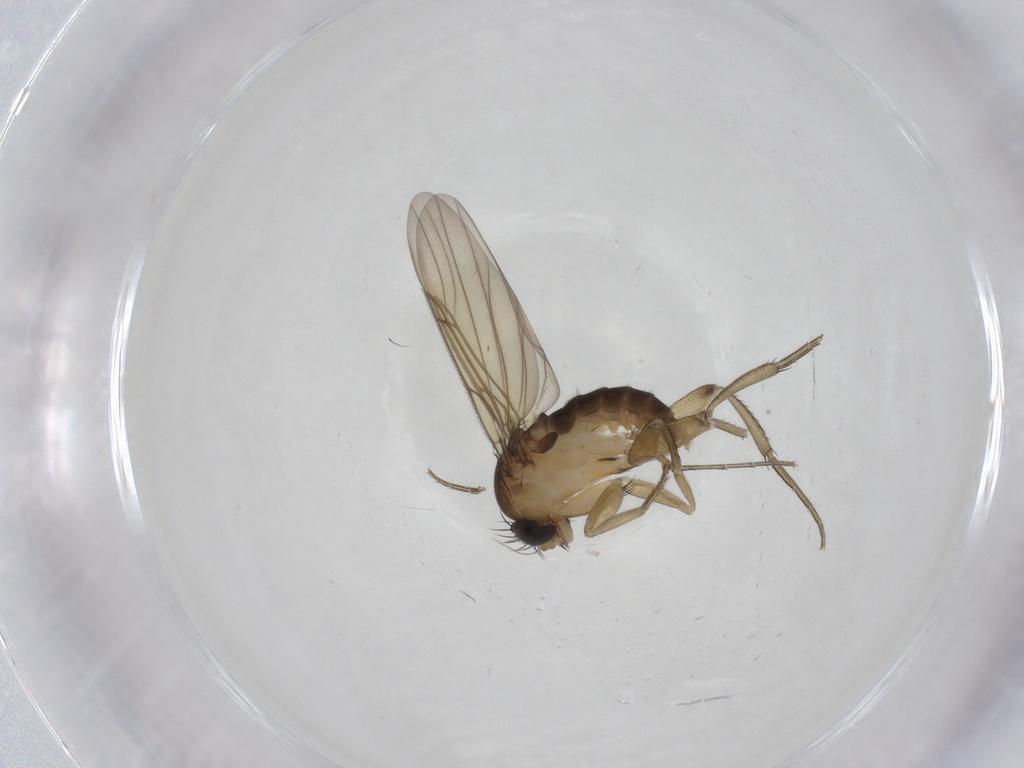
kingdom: Animalia
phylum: Arthropoda
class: Insecta
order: Diptera
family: Phoridae
